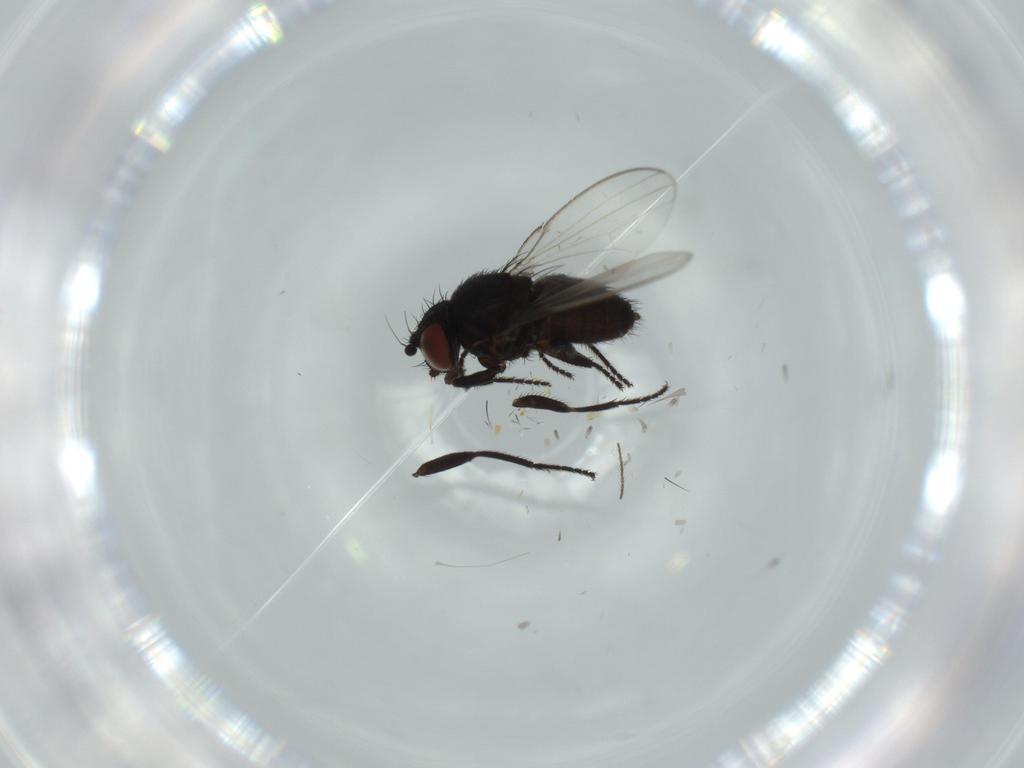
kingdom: Animalia
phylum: Arthropoda
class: Insecta
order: Diptera
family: Milichiidae
